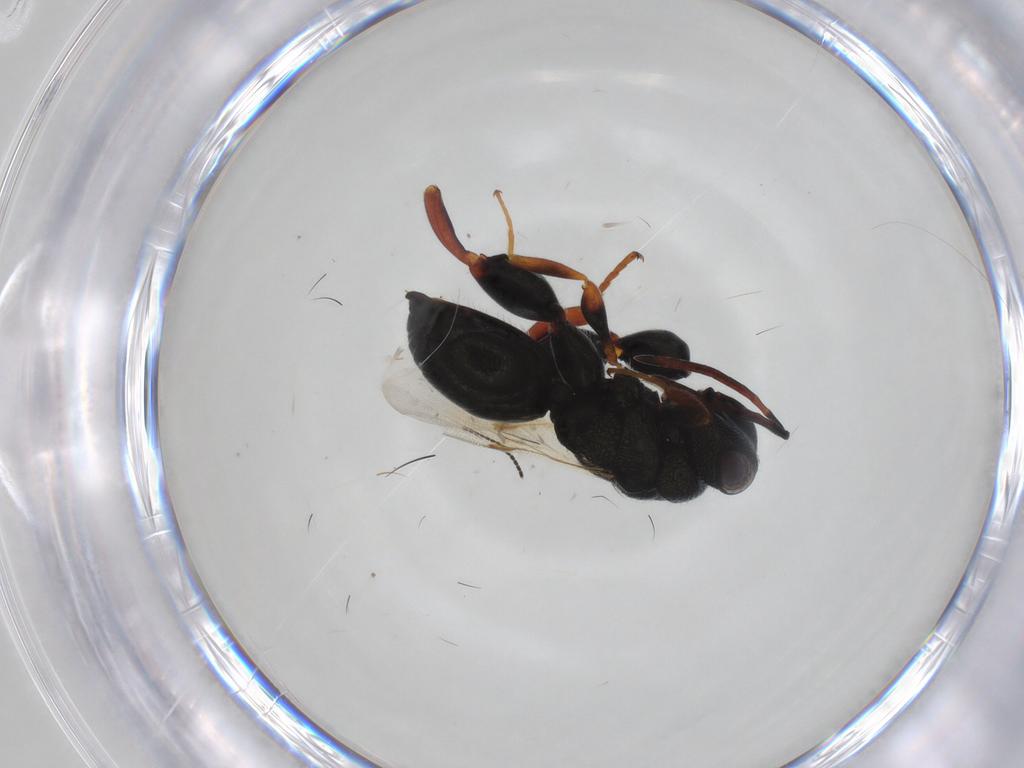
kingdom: Animalia
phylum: Arthropoda
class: Insecta
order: Hymenoptera
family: Chalcididae
